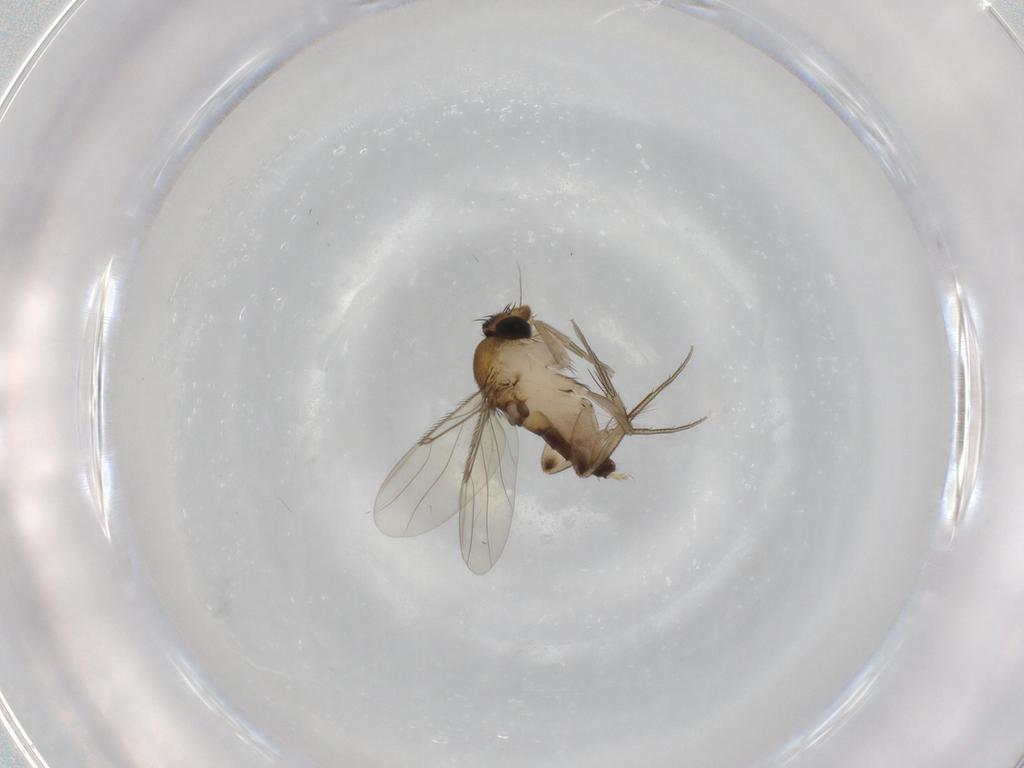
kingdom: Animalia
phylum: Arthropoda
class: Insecta
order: Diptera
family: Phoridae
